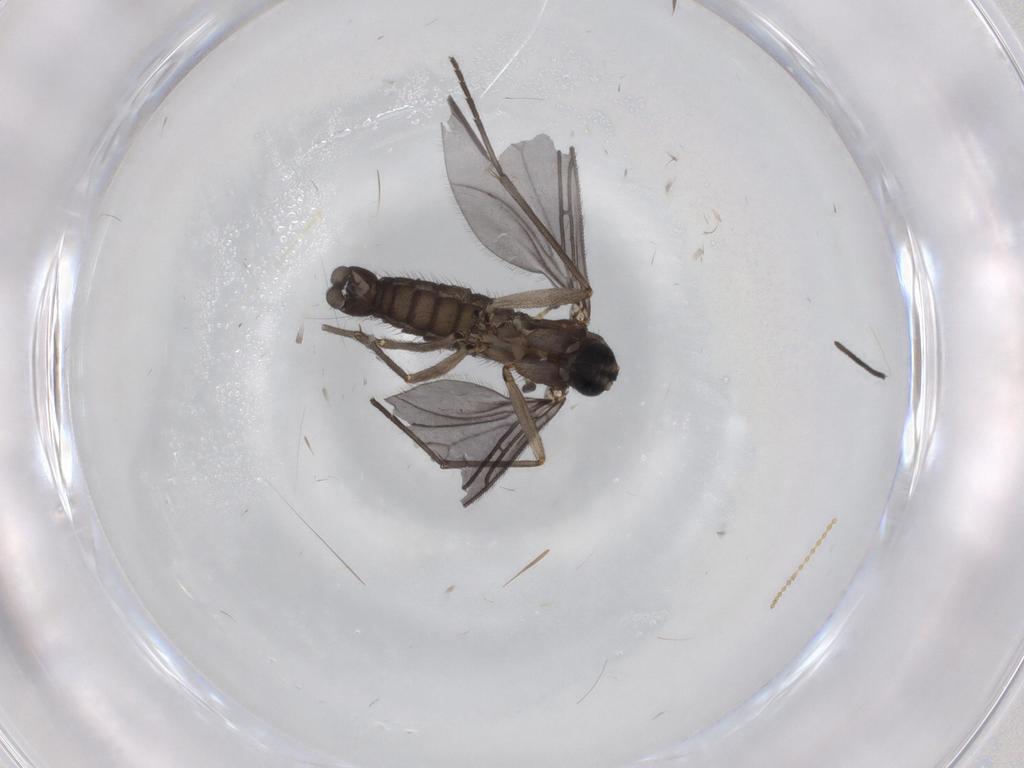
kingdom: Animalia
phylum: Arthropoda
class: Insecta
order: Diptera
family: Sciaridae
